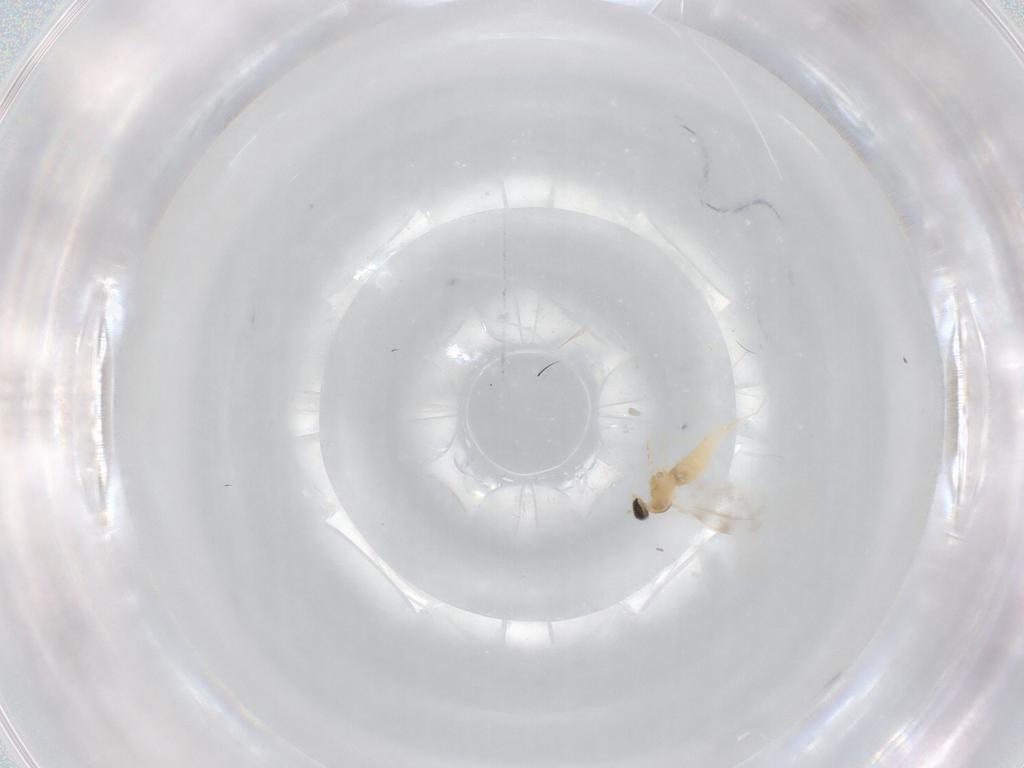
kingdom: Animalia
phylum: Arthropoda
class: Insecta
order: Diptera
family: Cecidomyiidae
